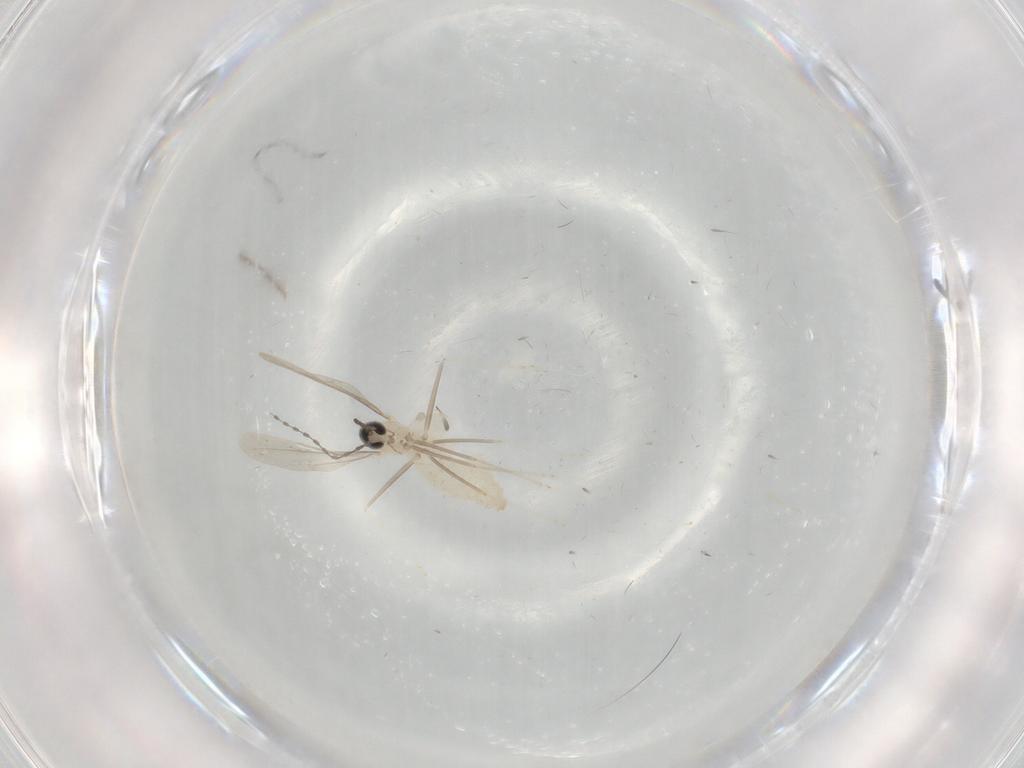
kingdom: Animalia
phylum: Arthropoda
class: Insecta
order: Diptera
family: Cecidomyiidae
